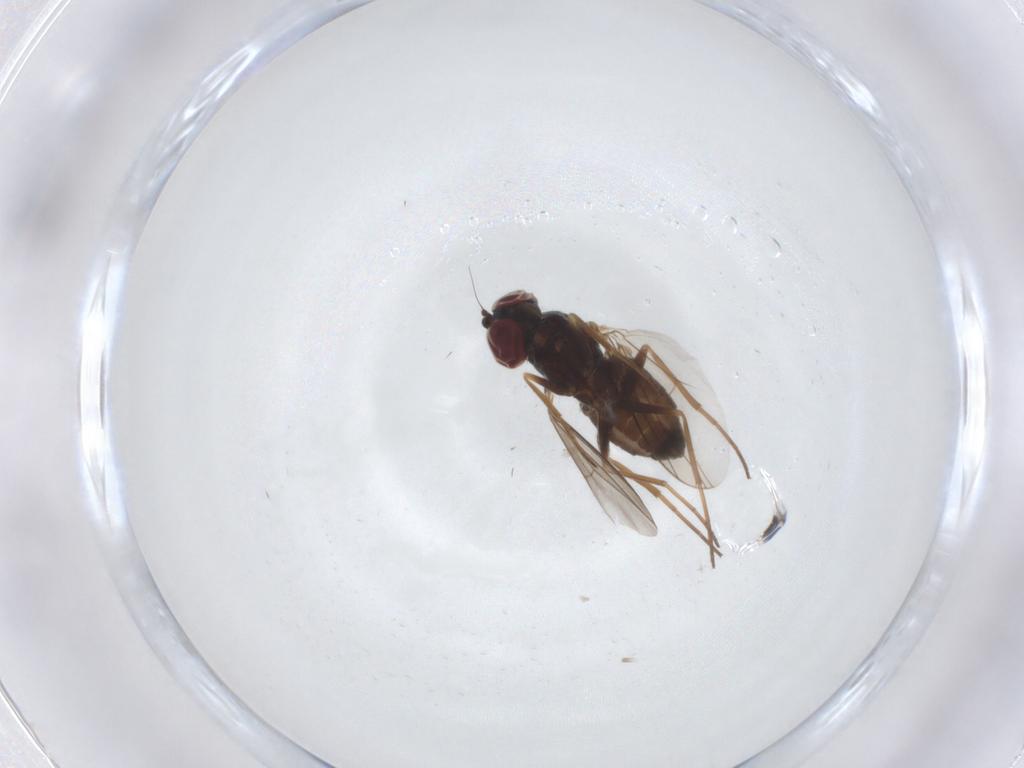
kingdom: Animalia
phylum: Arthropoda
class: Insecta
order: Diptera
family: Dolichopodidae
